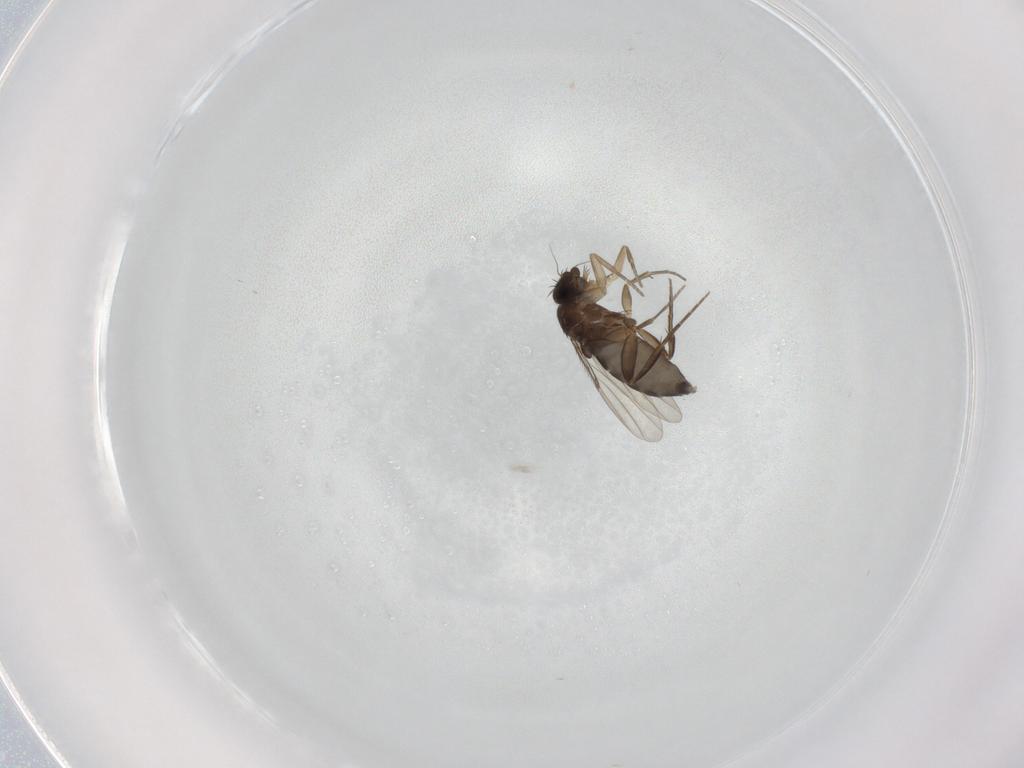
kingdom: Animalia
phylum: Arthropoda
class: Insecta
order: Diptera
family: Phoridae
